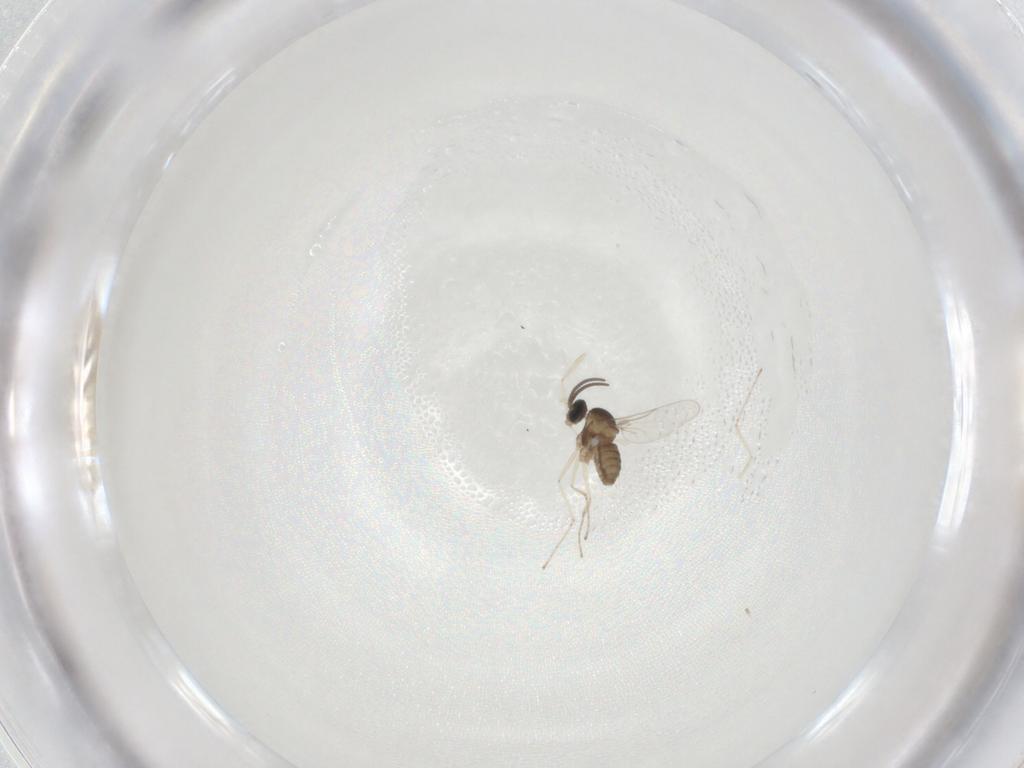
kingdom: Animalia
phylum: Arthropoda
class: Insecta
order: Diptera
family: Cecidomyiidae
